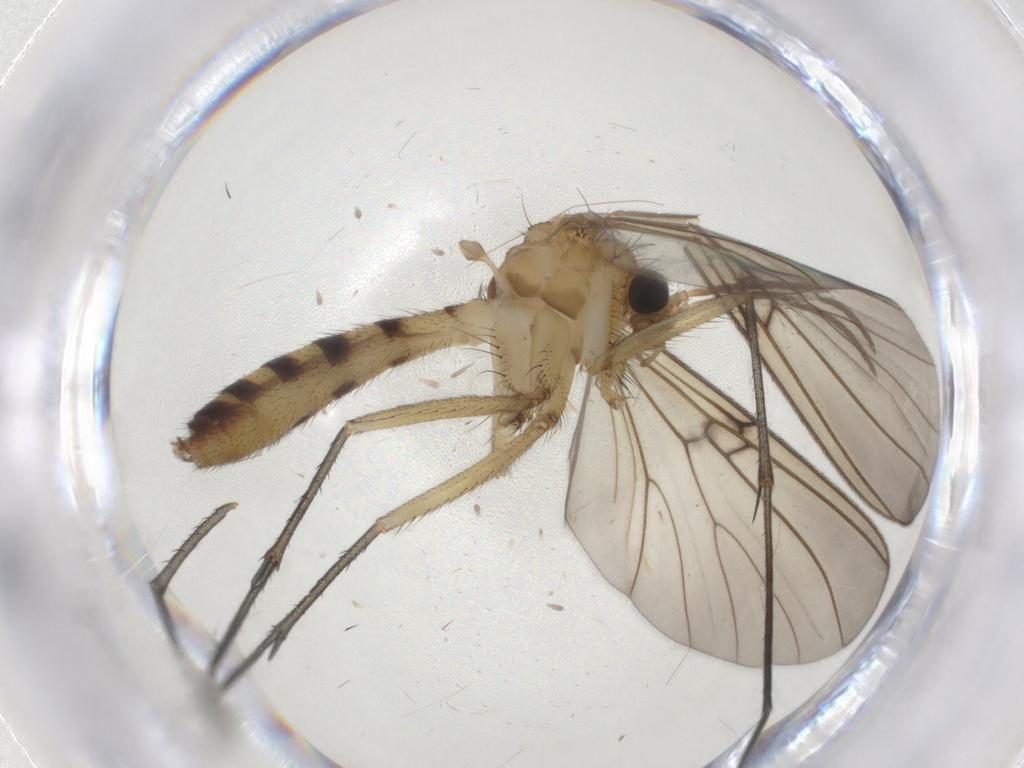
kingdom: Animalia
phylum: Arthropoda
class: Insecta
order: Diptera
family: Mycetophilidae
